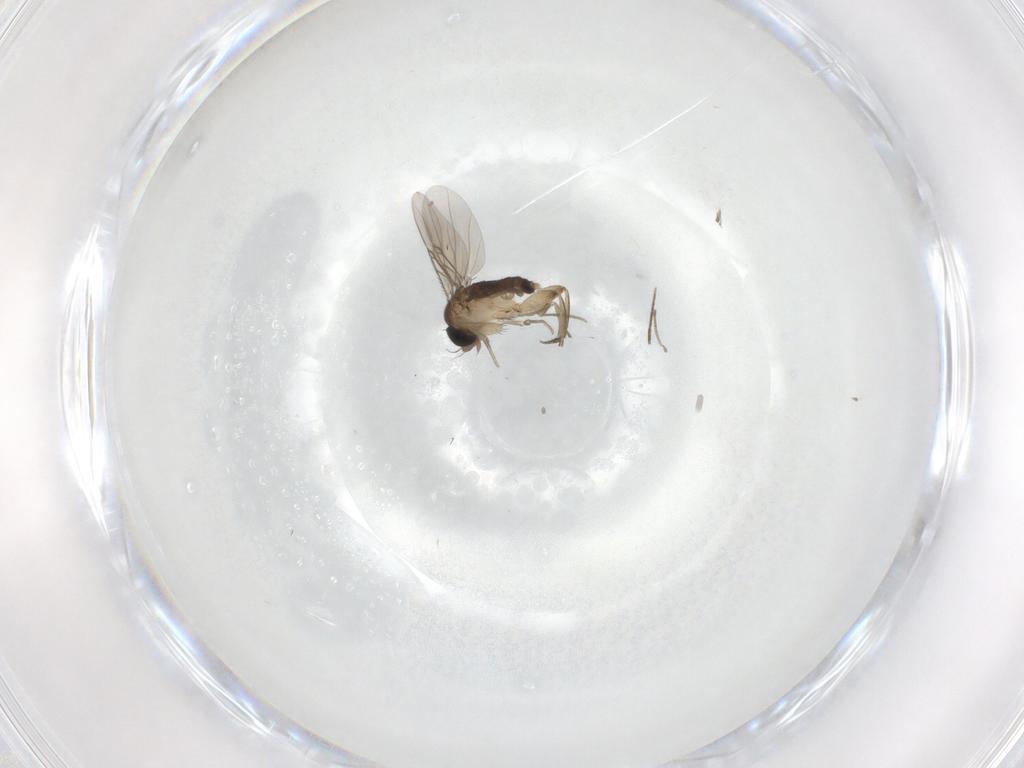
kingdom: Animalia
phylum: Arthropoda
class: Insecta
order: Diptera
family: Phoridae
